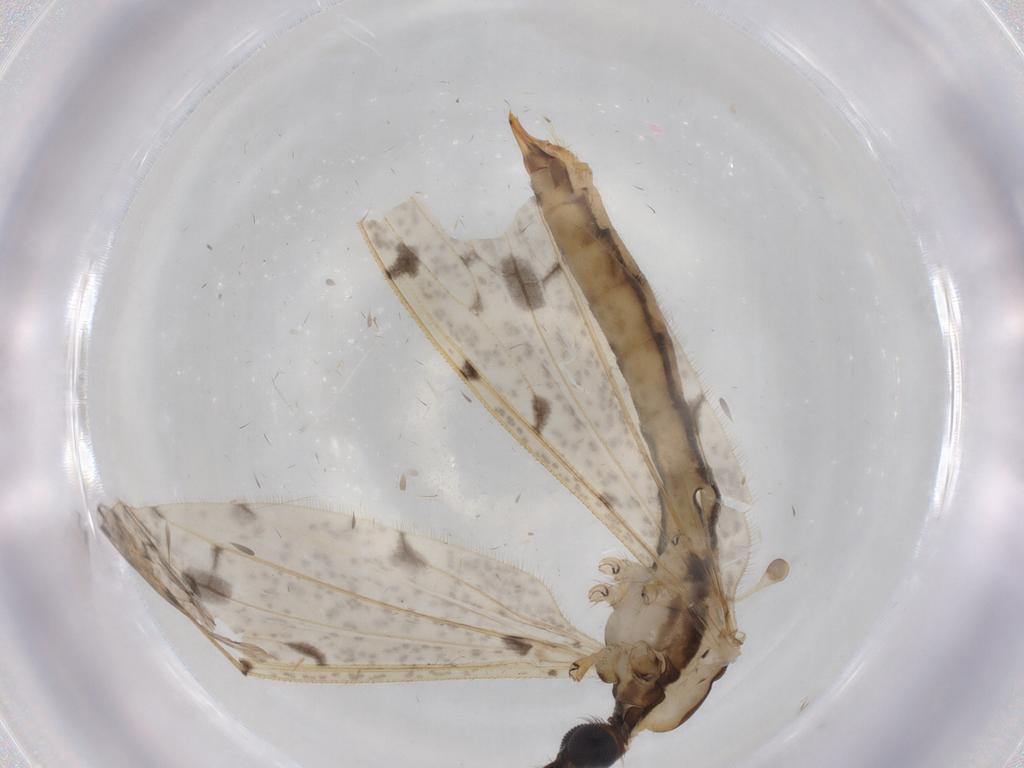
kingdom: Animalia
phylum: Arthropoda
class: Insecta
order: Diptera
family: Ceratopogonidae
